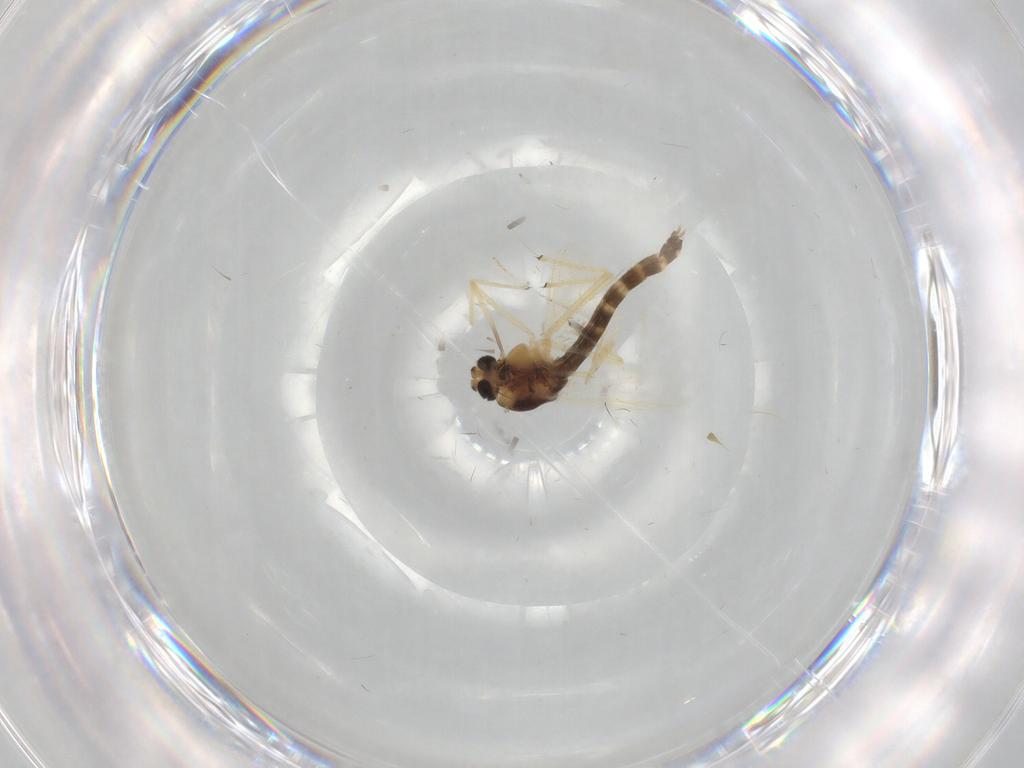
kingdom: Animalia
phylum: Arthropoda
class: Insecta
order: Diptera
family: Chironomidae
